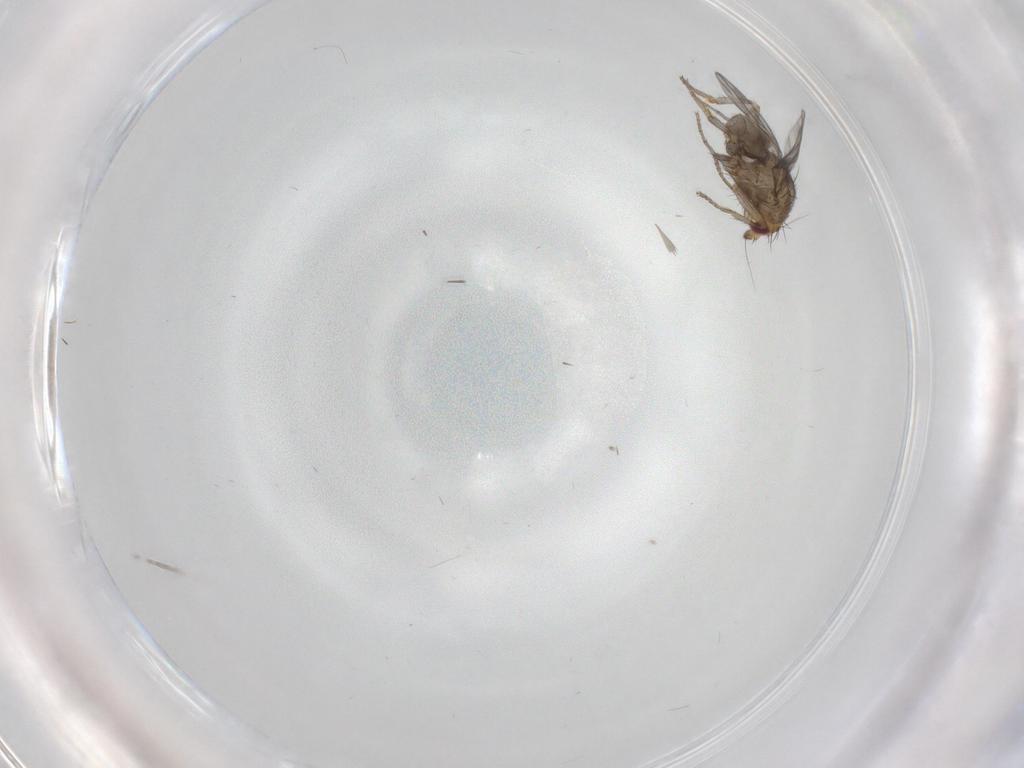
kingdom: Animalia
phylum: Arthropoda
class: Insecta
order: Diptera
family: Sphaeroceridae
